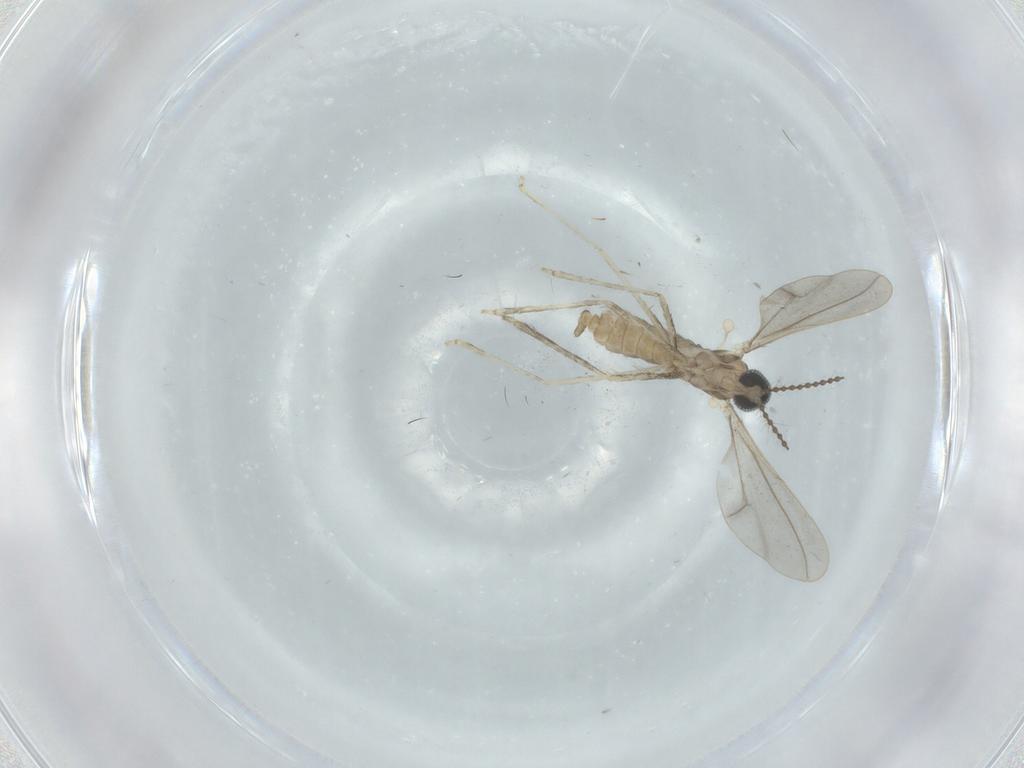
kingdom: Animalia
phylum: Arthropoda
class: Insecta
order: Diptera
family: Cecidomyiidae
